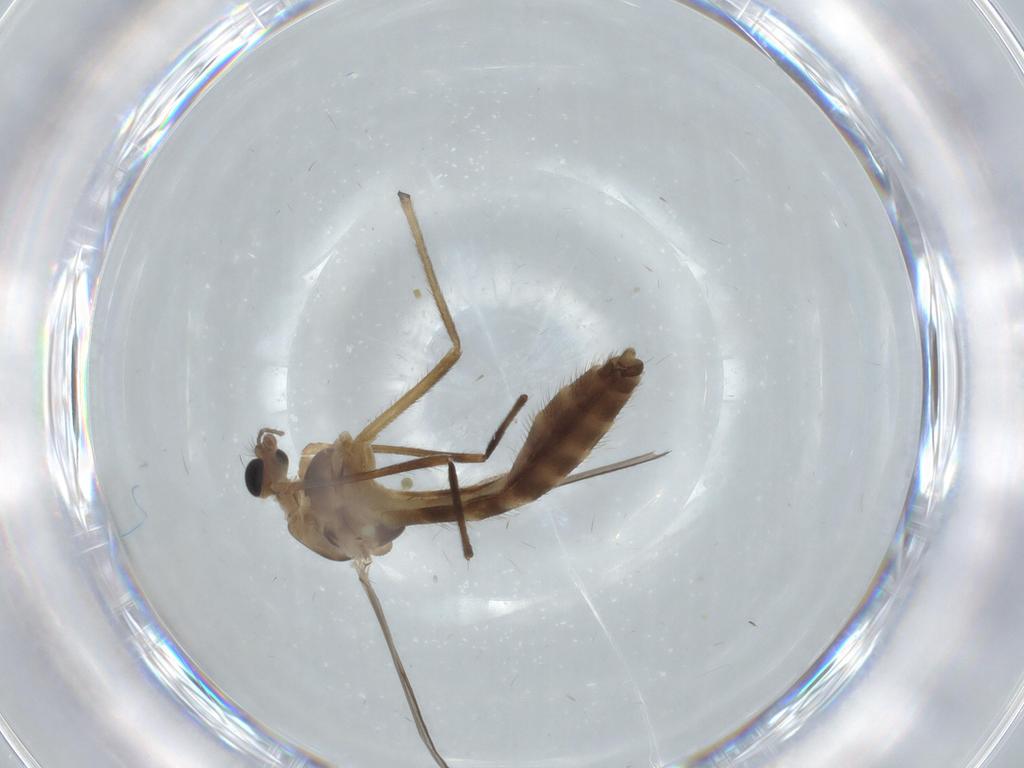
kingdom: Animalia
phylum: Arthropoda
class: Insecta
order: Diptera
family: Drosophilidae
